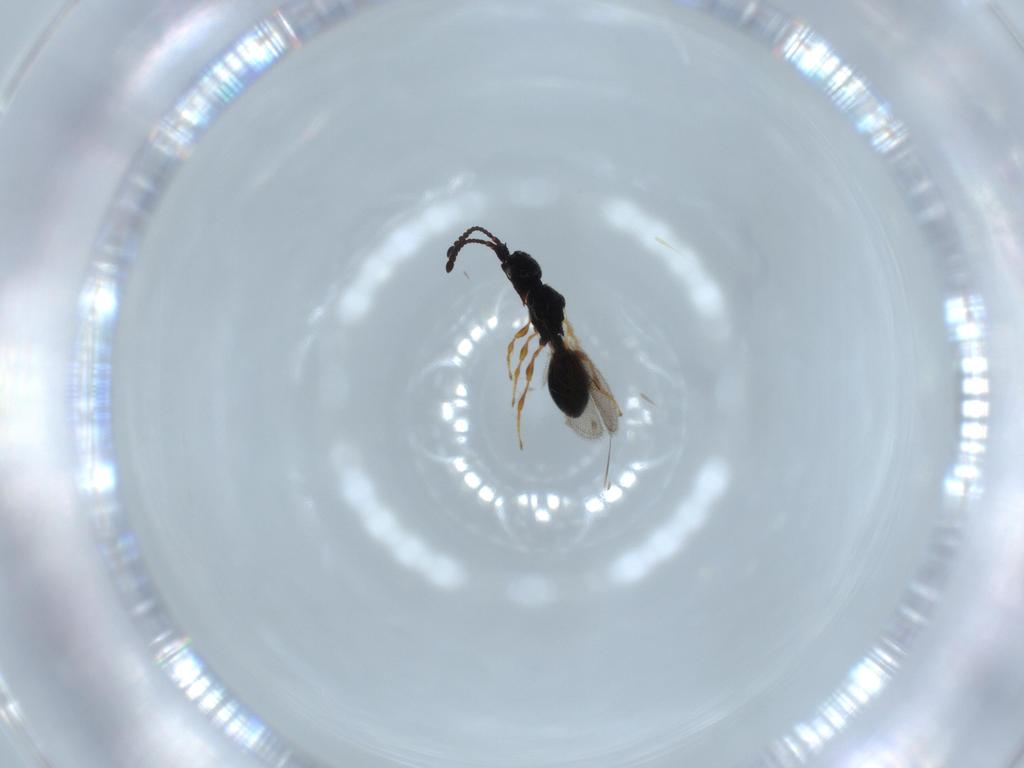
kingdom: Animalia
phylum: Arthropoda
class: Insecta
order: Hymenoptera
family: Diapriidae
